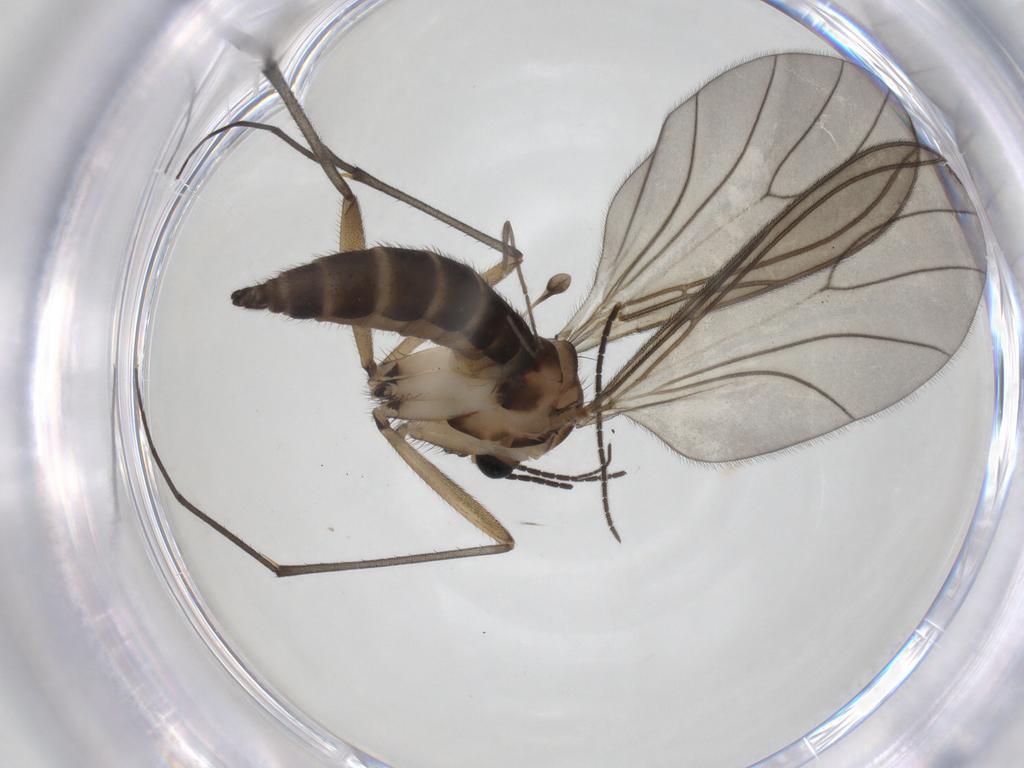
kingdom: Animalia
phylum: Arthropoda
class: Insecta
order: Diptera
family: Sciaridae
